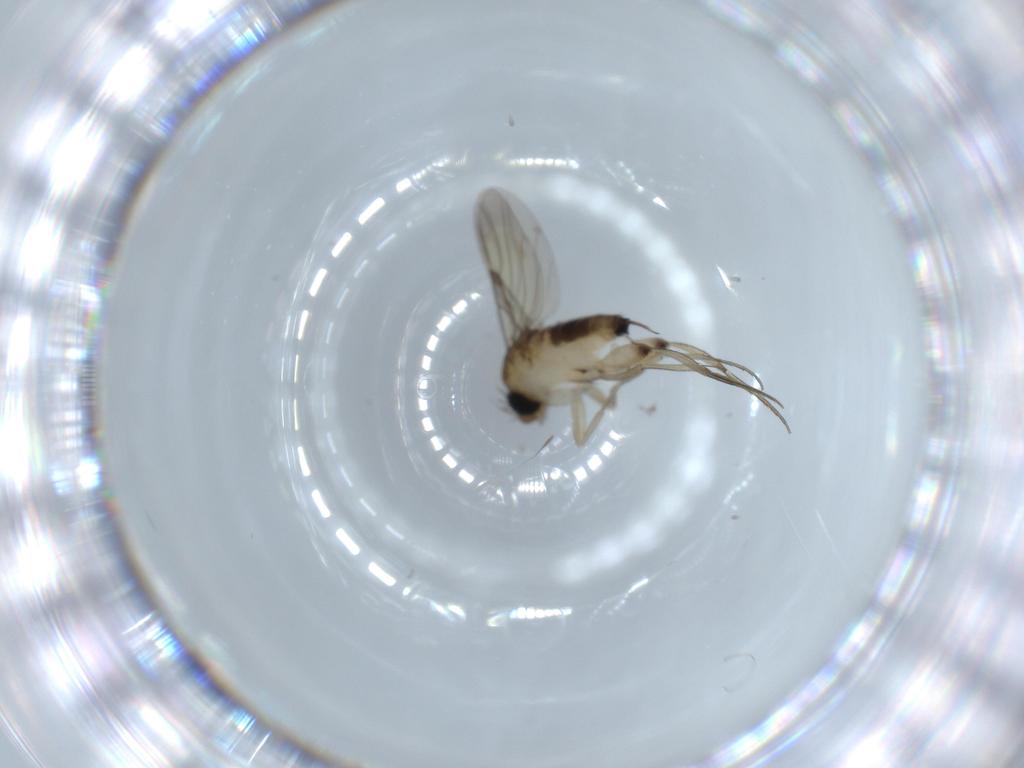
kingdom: Animalia
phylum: Arthropoda
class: Insecta
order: Diptera
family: Phoridae
